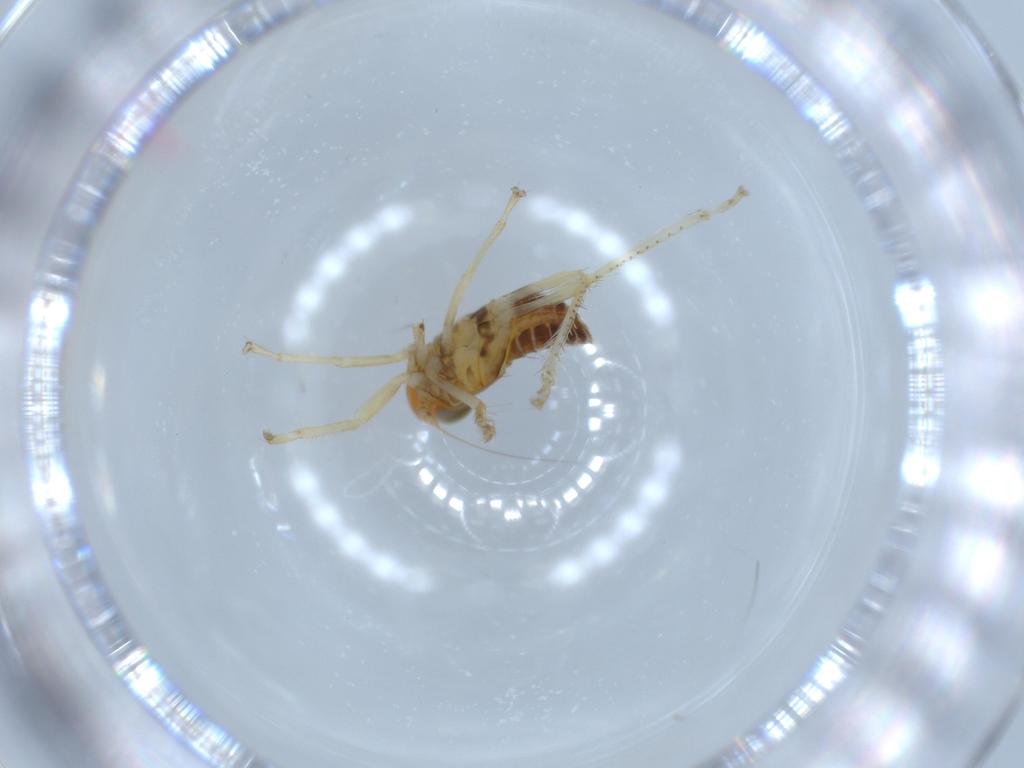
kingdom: Animalia
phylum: Arthropoda
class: Insecta
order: Hemiptera
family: Cicadellidae
